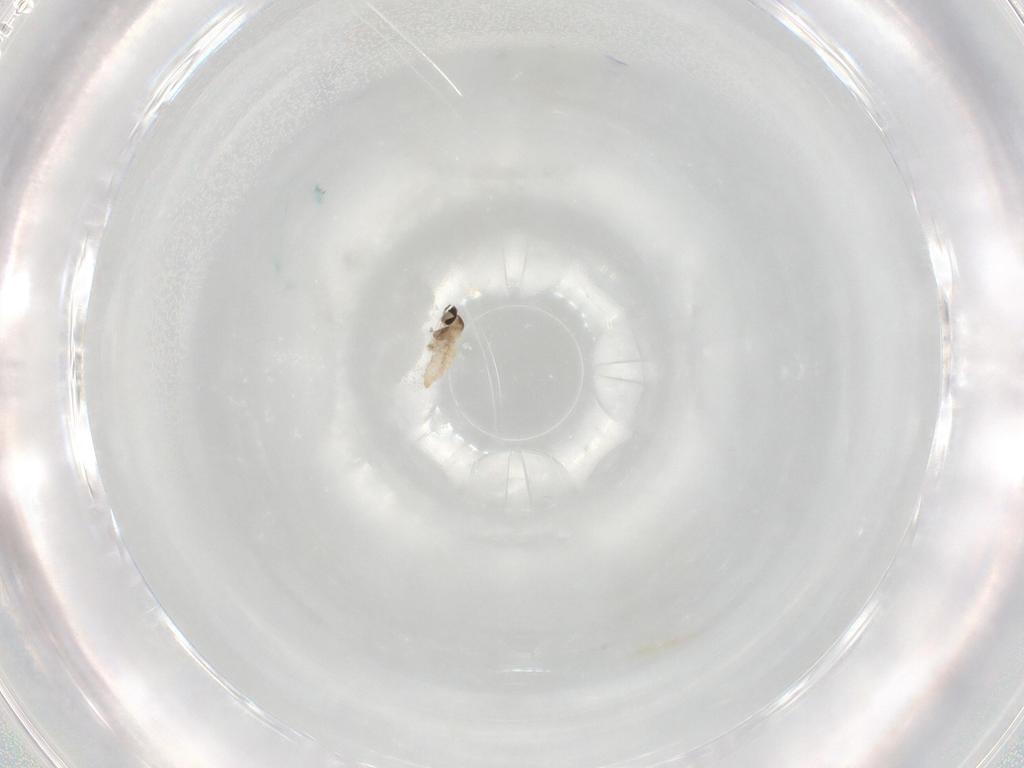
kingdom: Animalia
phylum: Arthropoda
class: Insecta
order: Diptera
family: Cecidomyiidae
